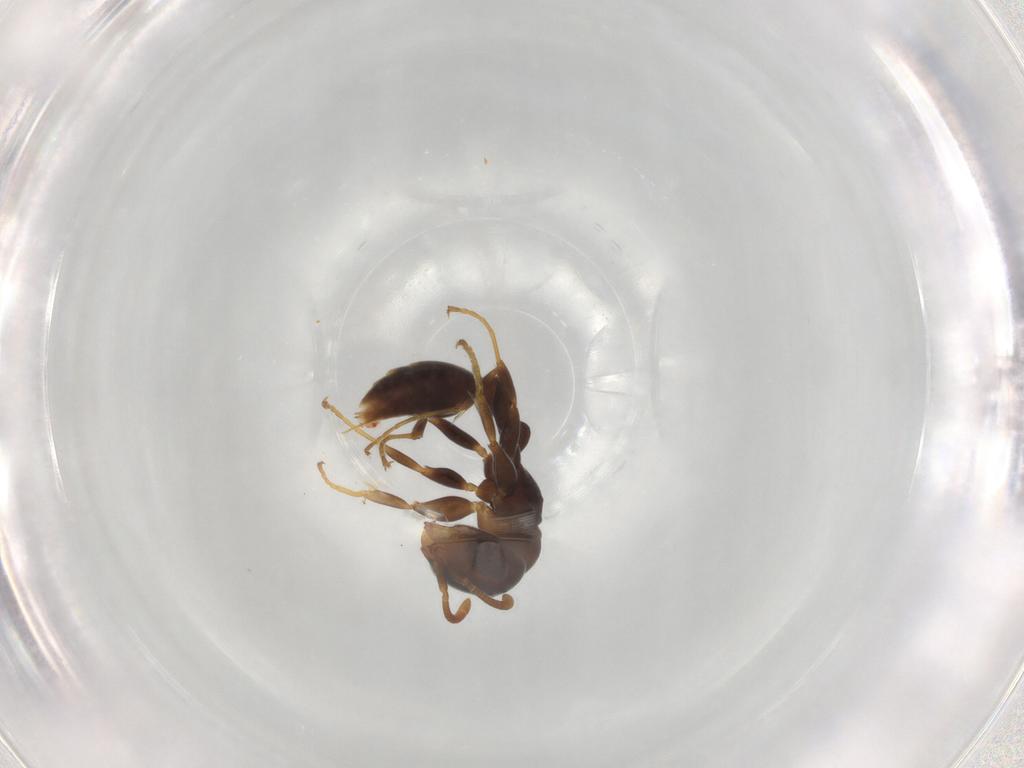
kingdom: Animalia
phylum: Arthropoda
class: Insecta
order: Hymenoptera
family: Formicidae
